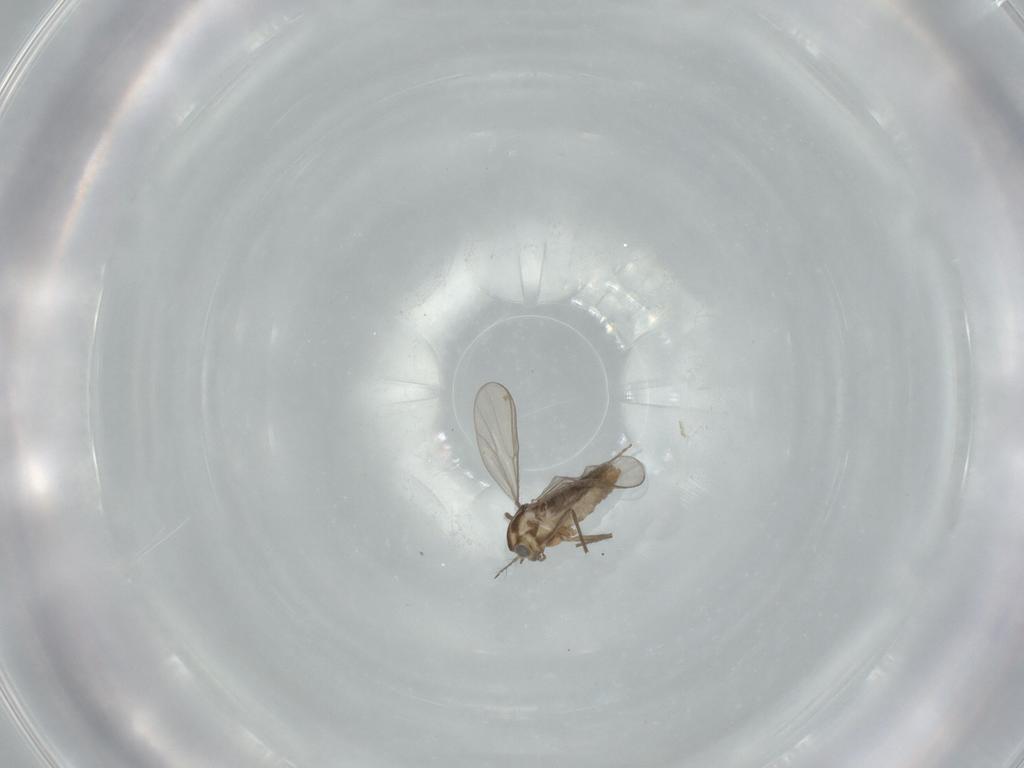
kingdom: Animalia
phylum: Arthropoda
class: Insecta
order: Diptera
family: Chironomidae
